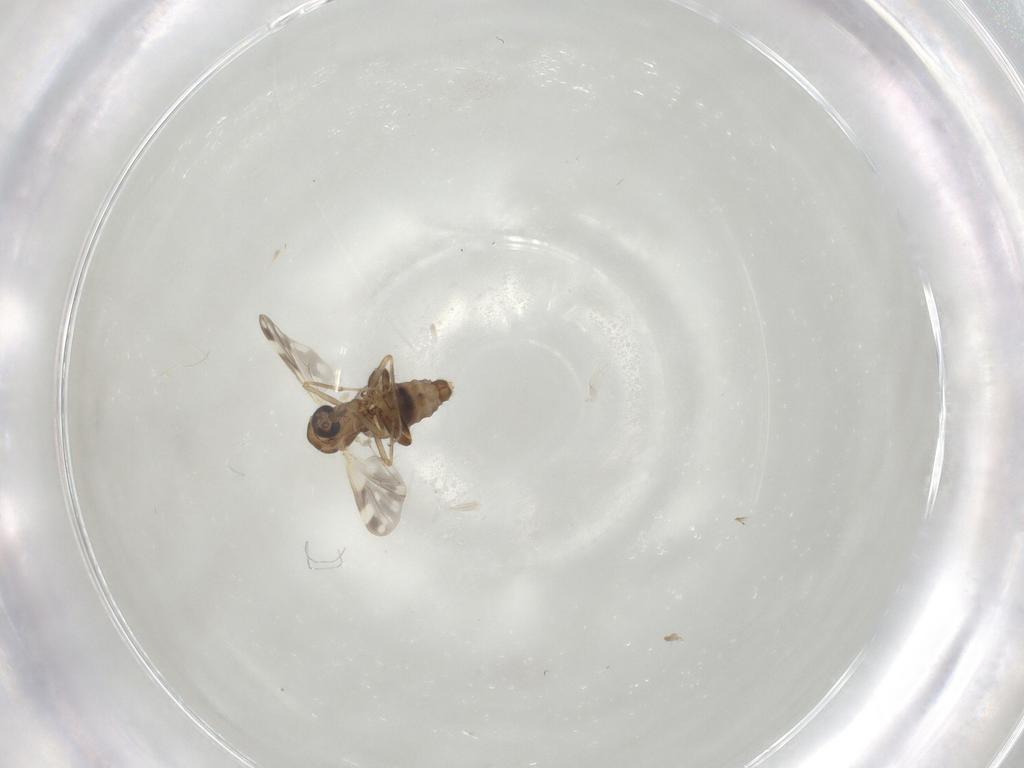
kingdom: Animalia
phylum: Arthropoda
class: Insecta
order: Diptera
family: Ceratopogonidae
